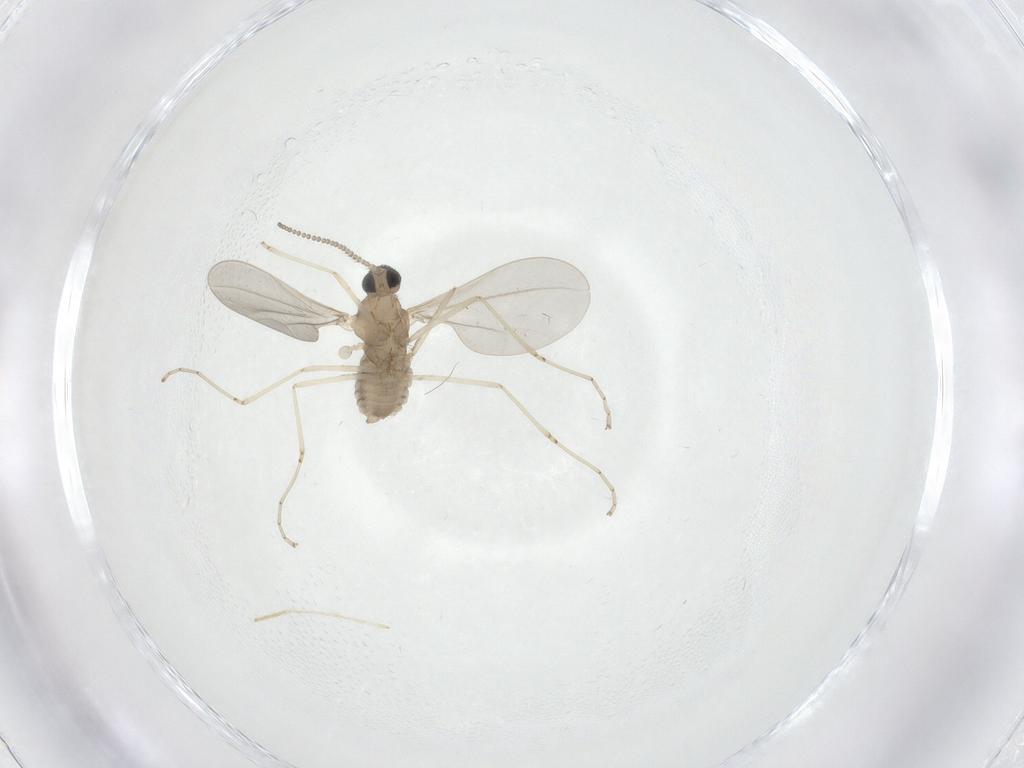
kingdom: Animalia
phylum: Arthropoda
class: Insecta
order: Diptera
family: Cecidomyiidae
